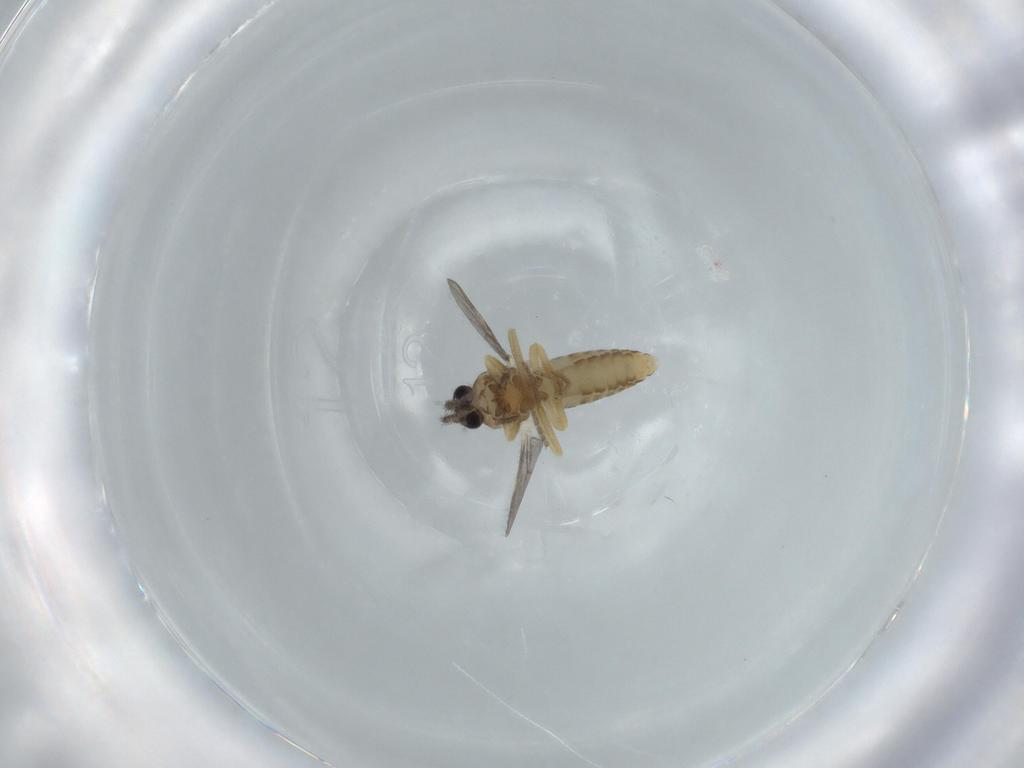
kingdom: Animalia
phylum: Arthropoda
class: Insecta
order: Diptera
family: Ceratopogonidae
